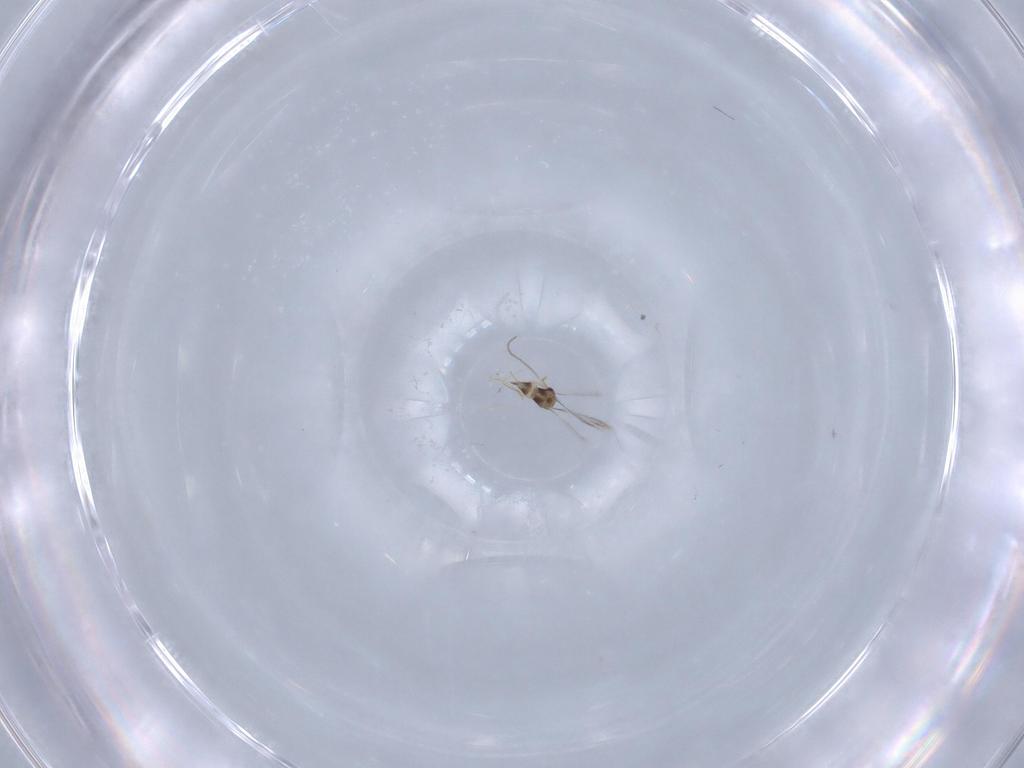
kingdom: Animalia
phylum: Arthropoda
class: Insecta
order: Hymenoptera
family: Mymaridae
